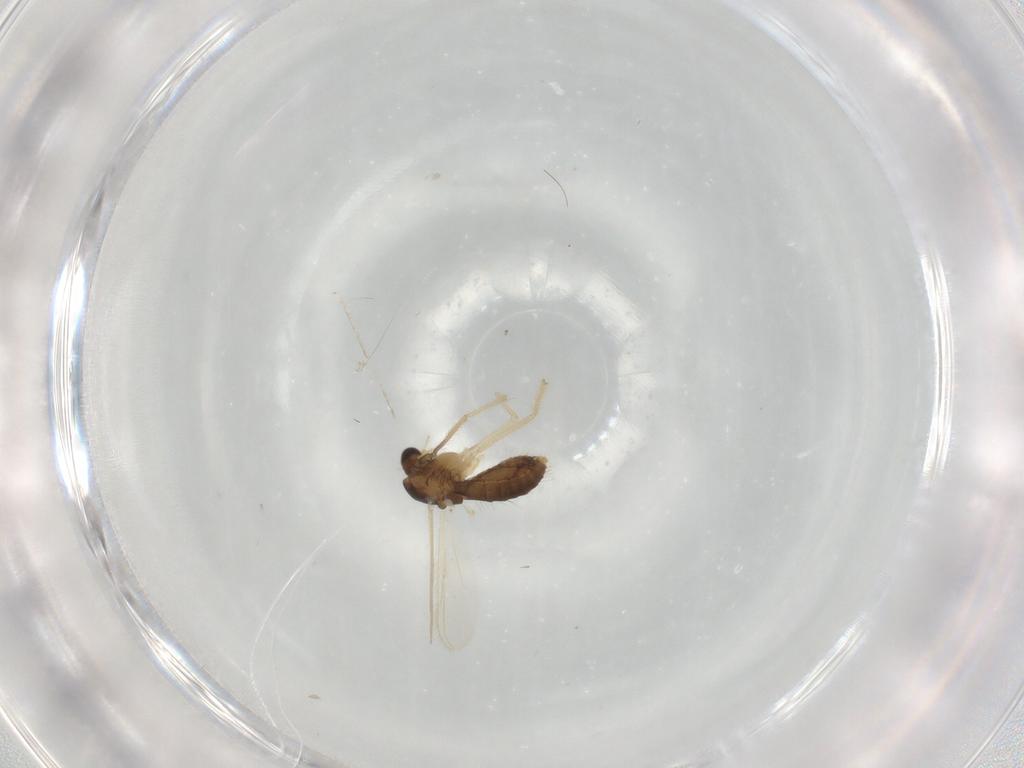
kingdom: Animalia
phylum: Arthropoda
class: Insecta
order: Diptera
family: Chironomidae
